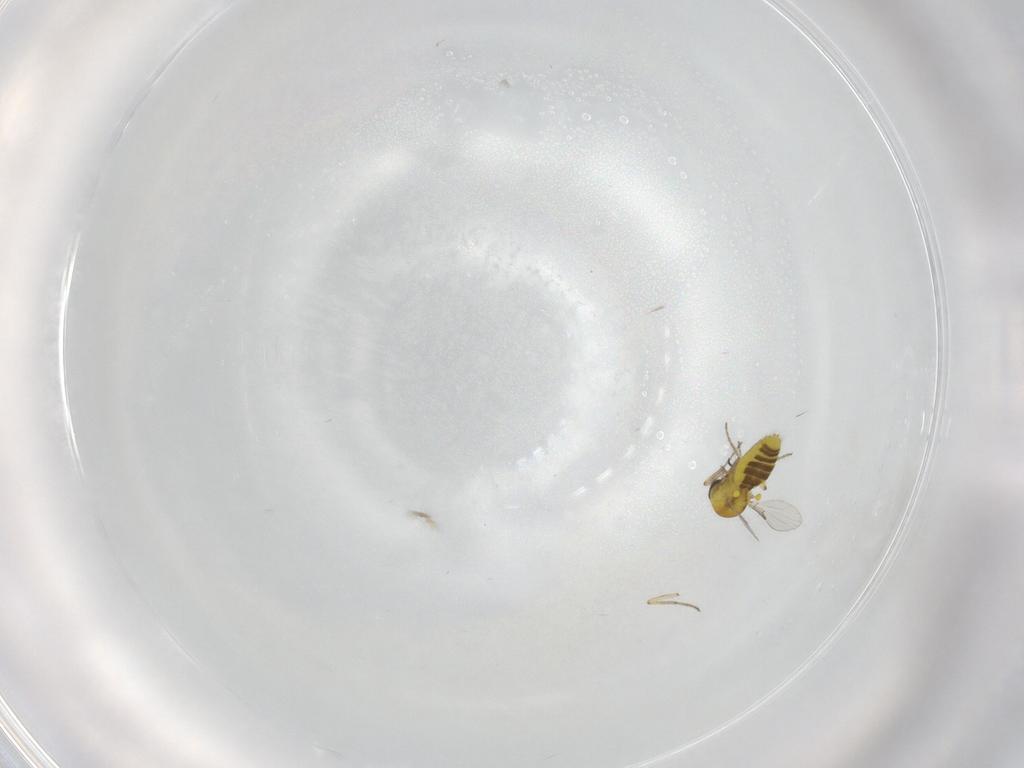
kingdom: Animalia
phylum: Arthropoda
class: Insecta
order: Diptera
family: Ceratopogonidae
